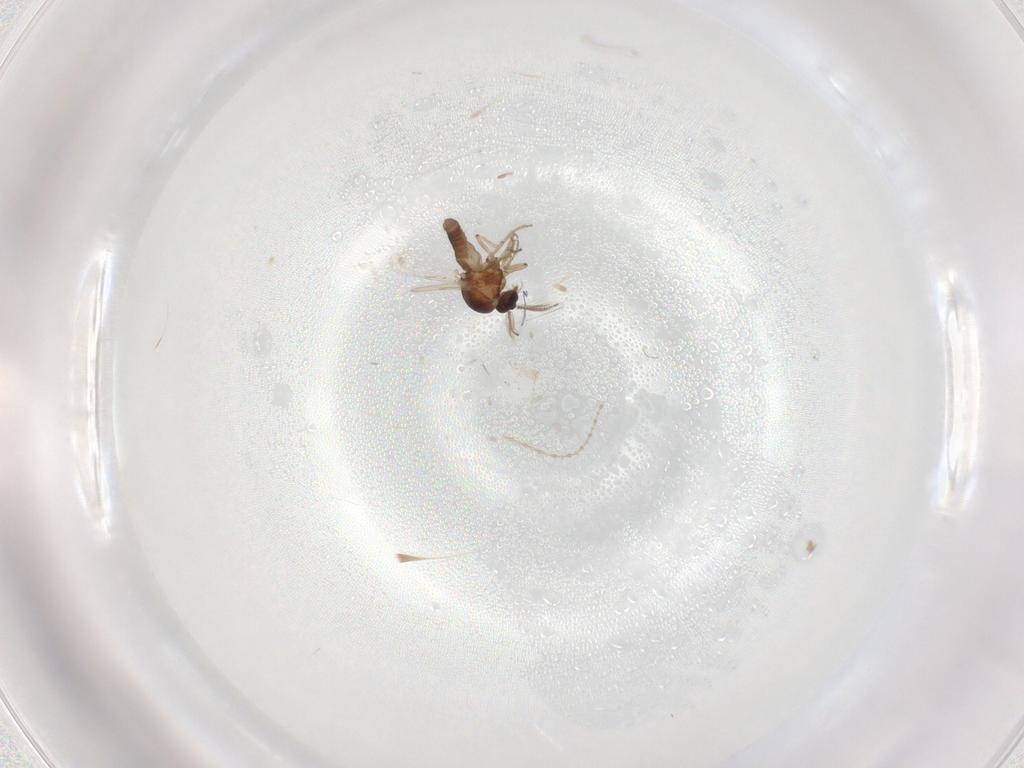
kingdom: Animalia
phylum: Arthropoda
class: Insecta
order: Diptera
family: Cecidomyiidae
